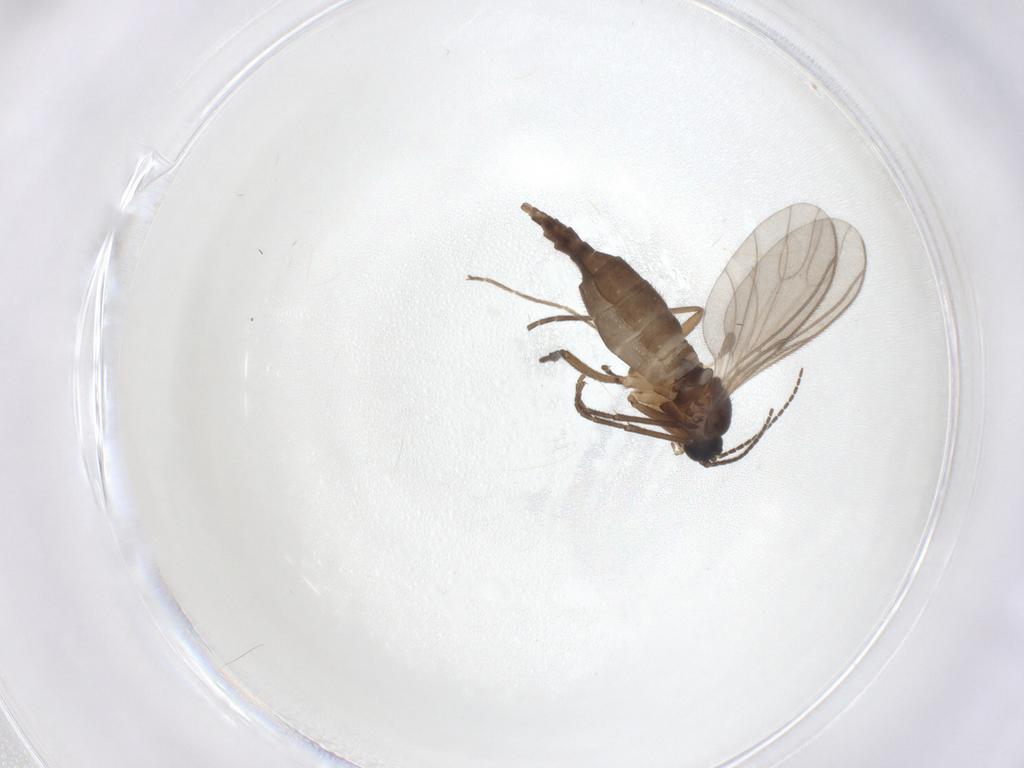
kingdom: Animalia
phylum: Arthropoda
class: Insecta
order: Diptera
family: Sciaridae
